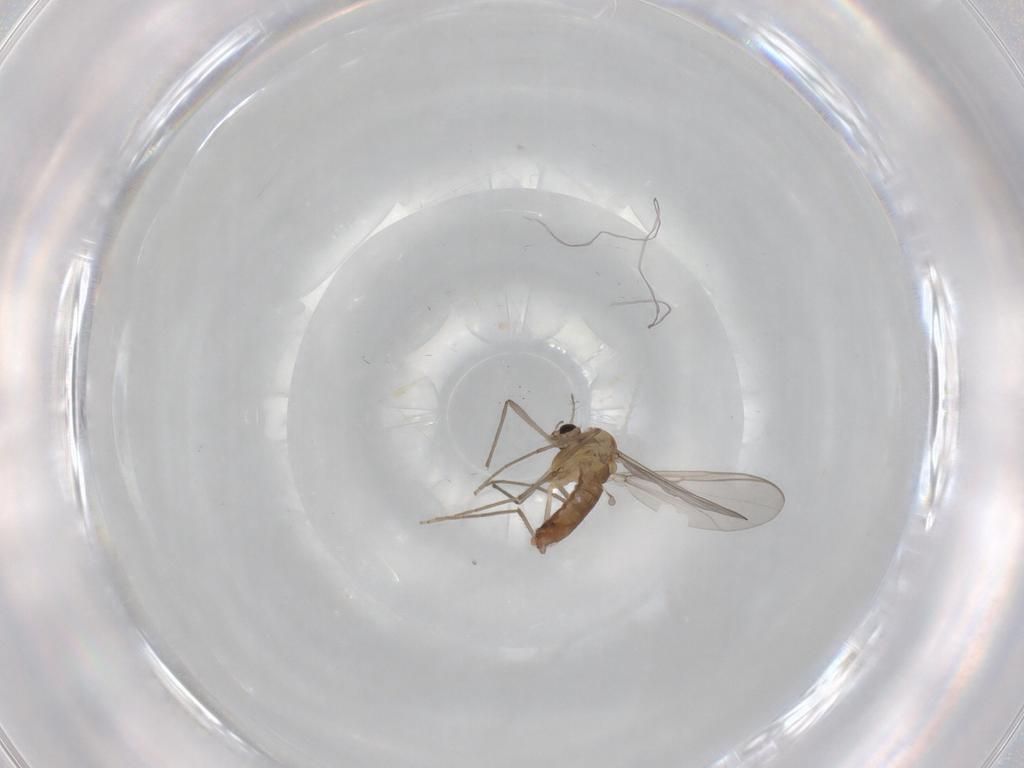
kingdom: Animalia
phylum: Arthropoda
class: Insecta
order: Diptera
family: Chironomidae
